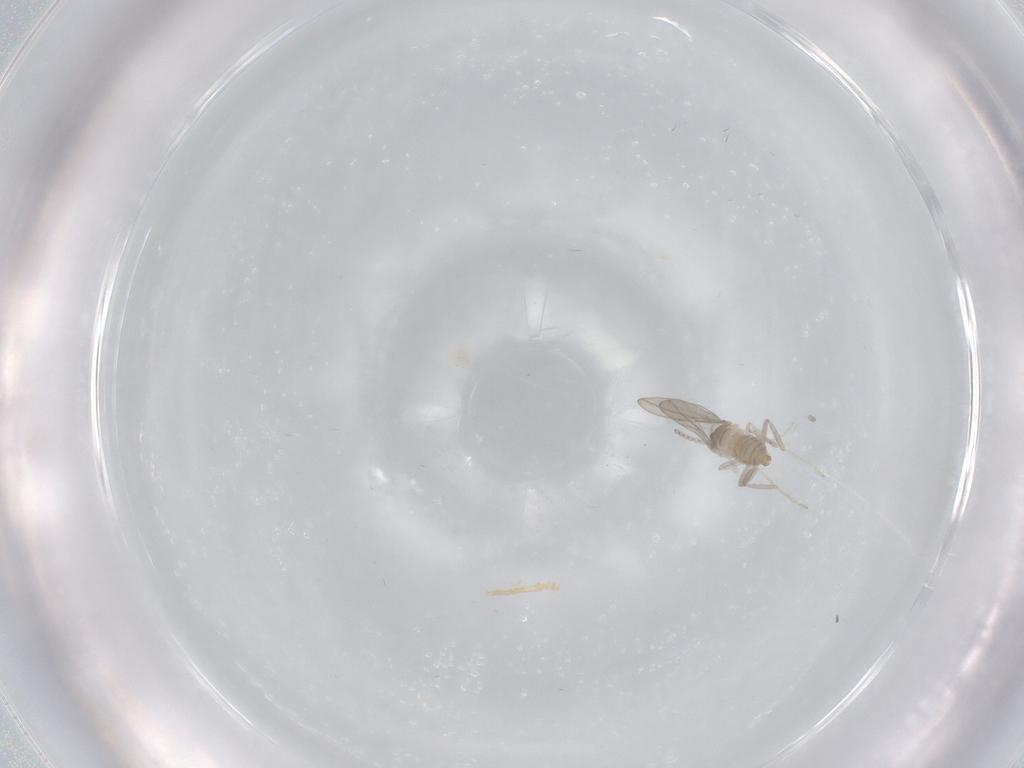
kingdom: Animalia
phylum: Arthropoda
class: Insecta
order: Diptera
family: Cecidomyiidae
